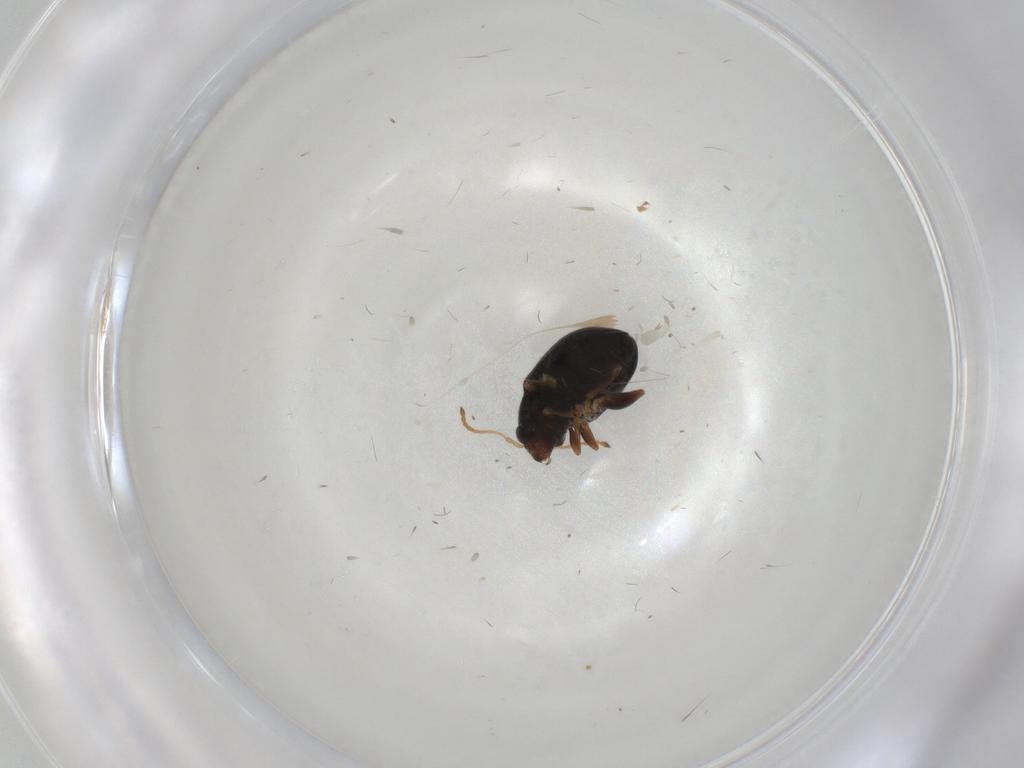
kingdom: Animalia
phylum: Arthropoda
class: Insecta
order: Coleoptera
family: Chrysomelidae
